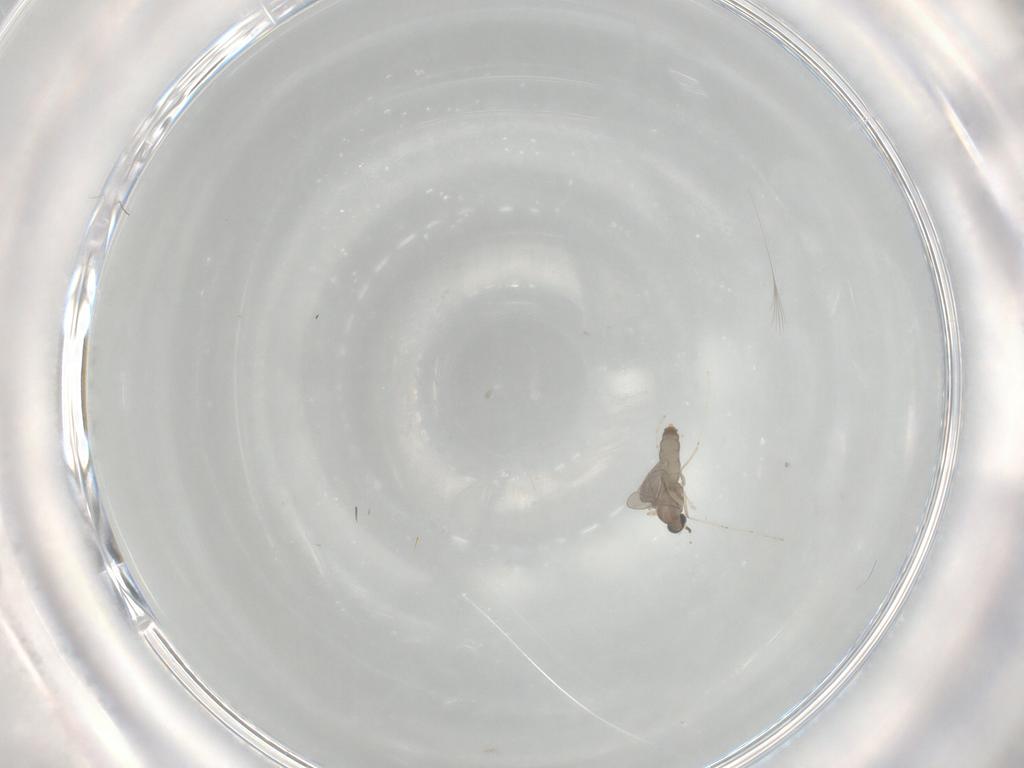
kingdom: Animalia
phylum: Arthropoda
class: Insecta
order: Diptera
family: Cecidomyiidae
